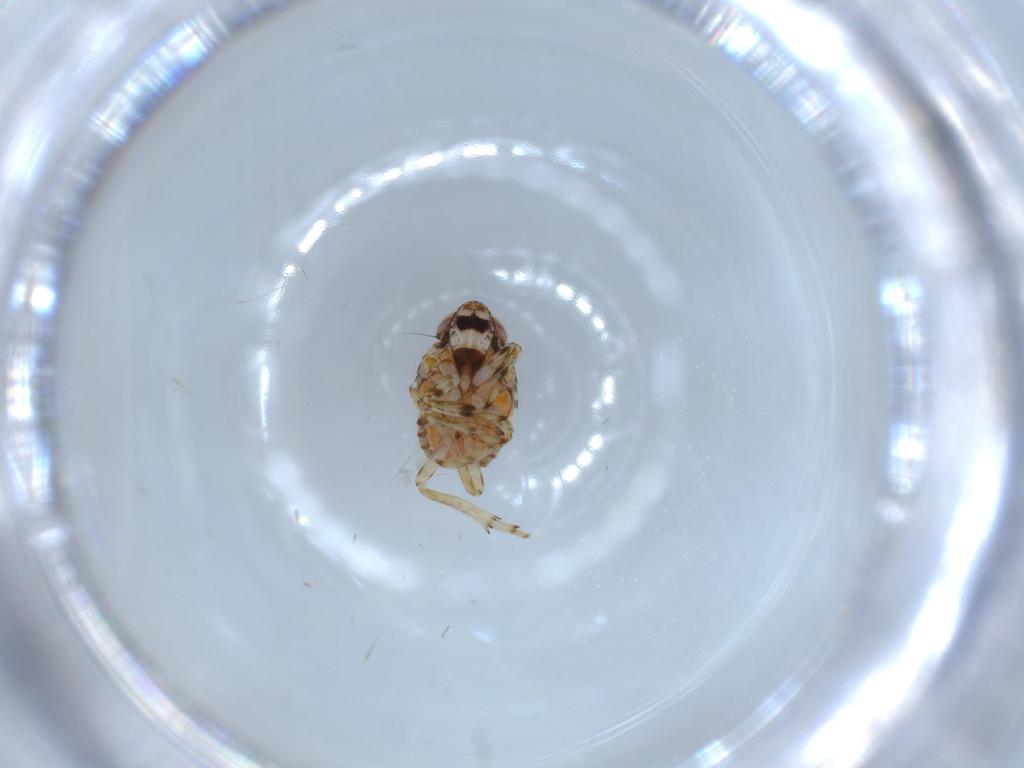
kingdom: Animalia
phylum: Arthropoda
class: Insecta
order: Hemiptera
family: Issidae
